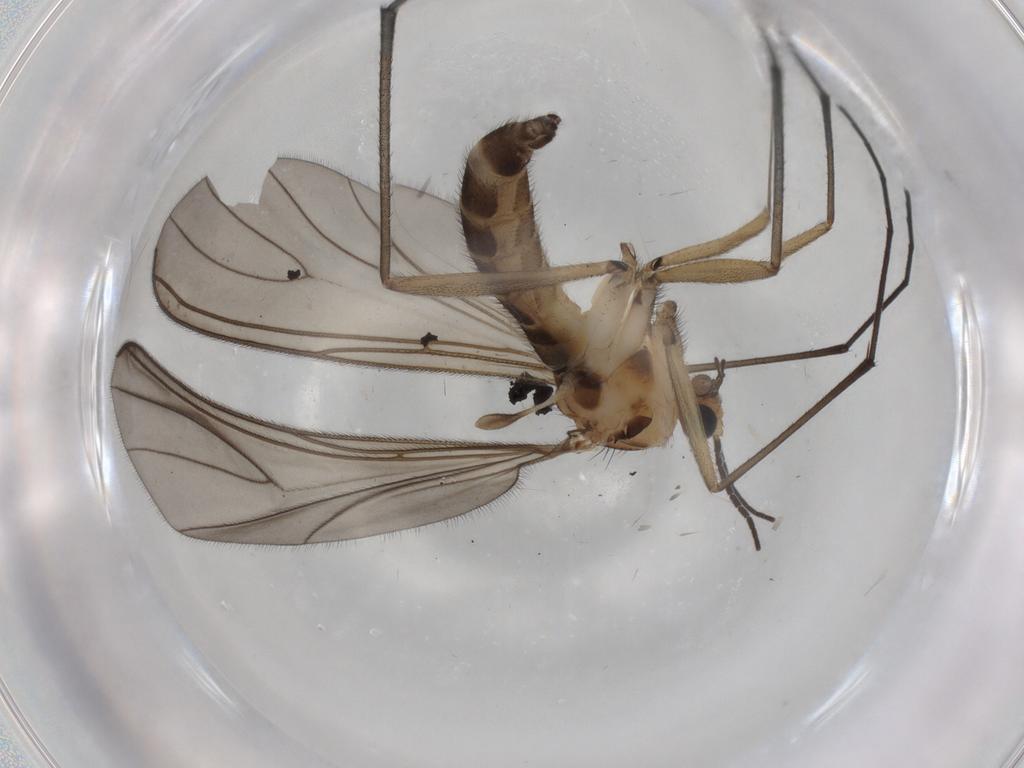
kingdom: Animalia
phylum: Arthropoda
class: Insecta
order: Diptera
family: Sciaridae
